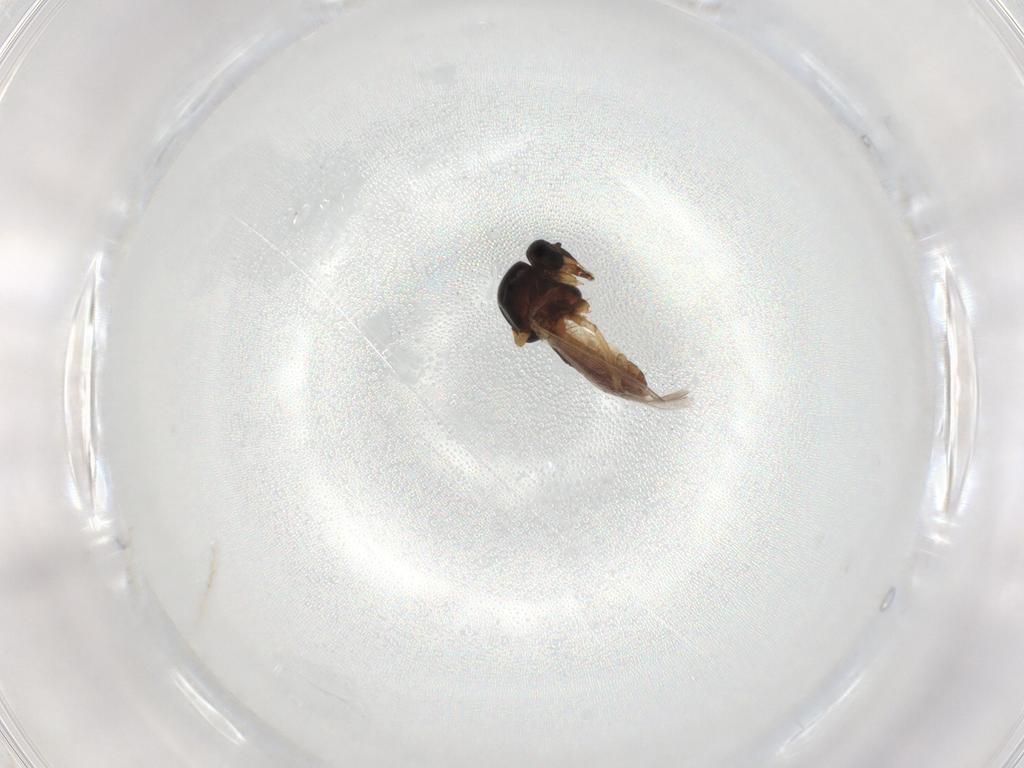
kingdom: Animalia
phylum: Arthropoda
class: Insecta
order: Diptera
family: Ceratopogonidae
